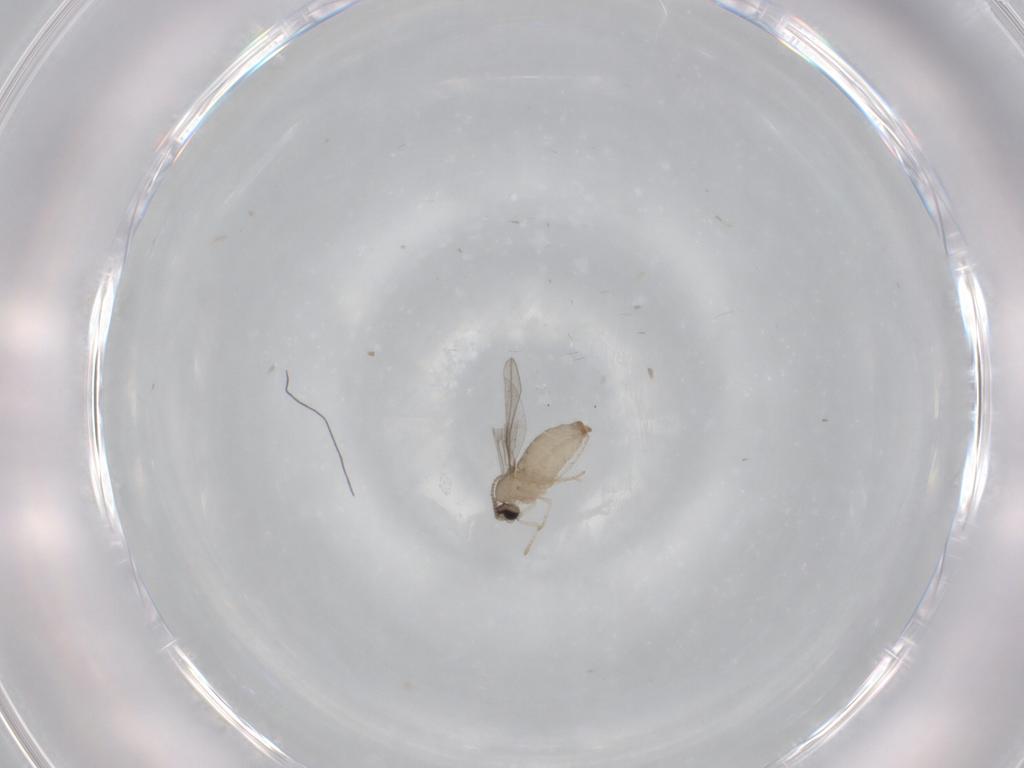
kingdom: Animalia
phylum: Arthropoda
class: Insecta
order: Diptera
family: Cecidomyiidae
